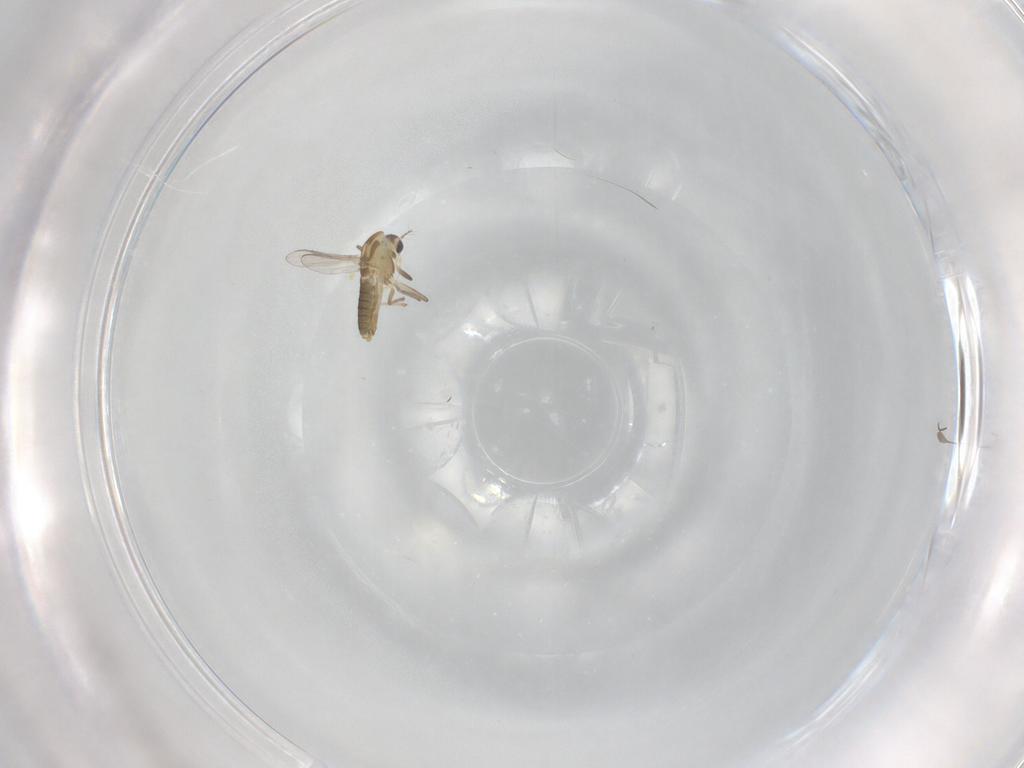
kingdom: Animalia
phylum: Arthropoda
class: Insecta
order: Diptera
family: Chironomidae
